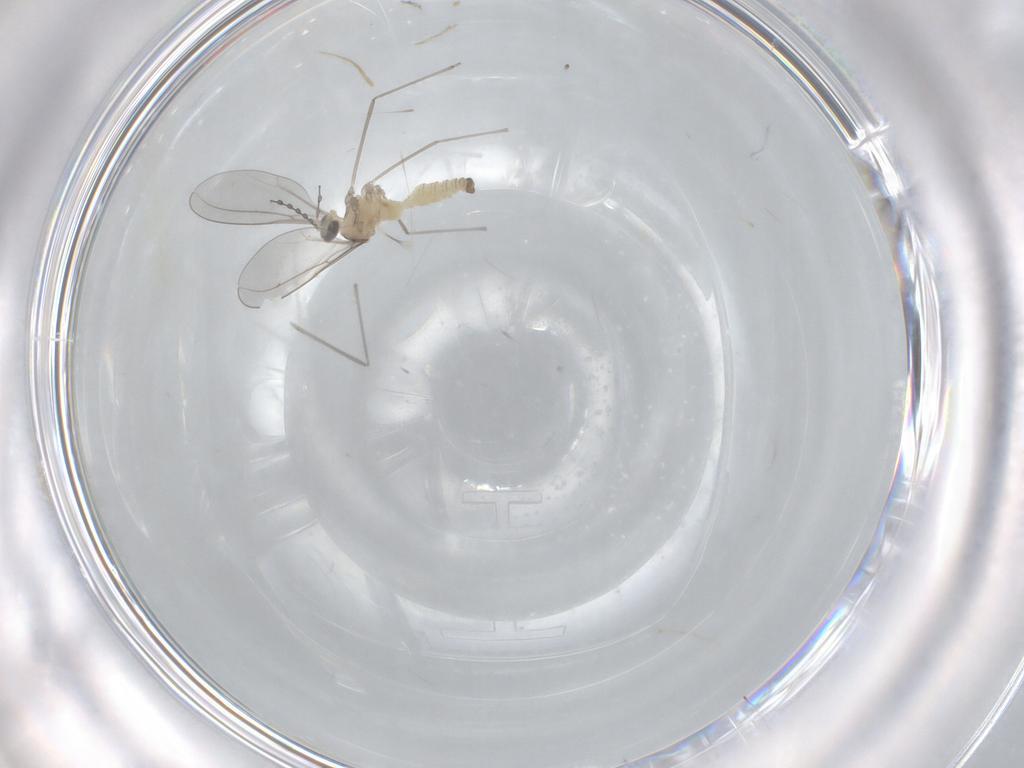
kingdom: Animalia
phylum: Arthropoda
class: Insecta
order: Diptera
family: Cecidomyiidae
